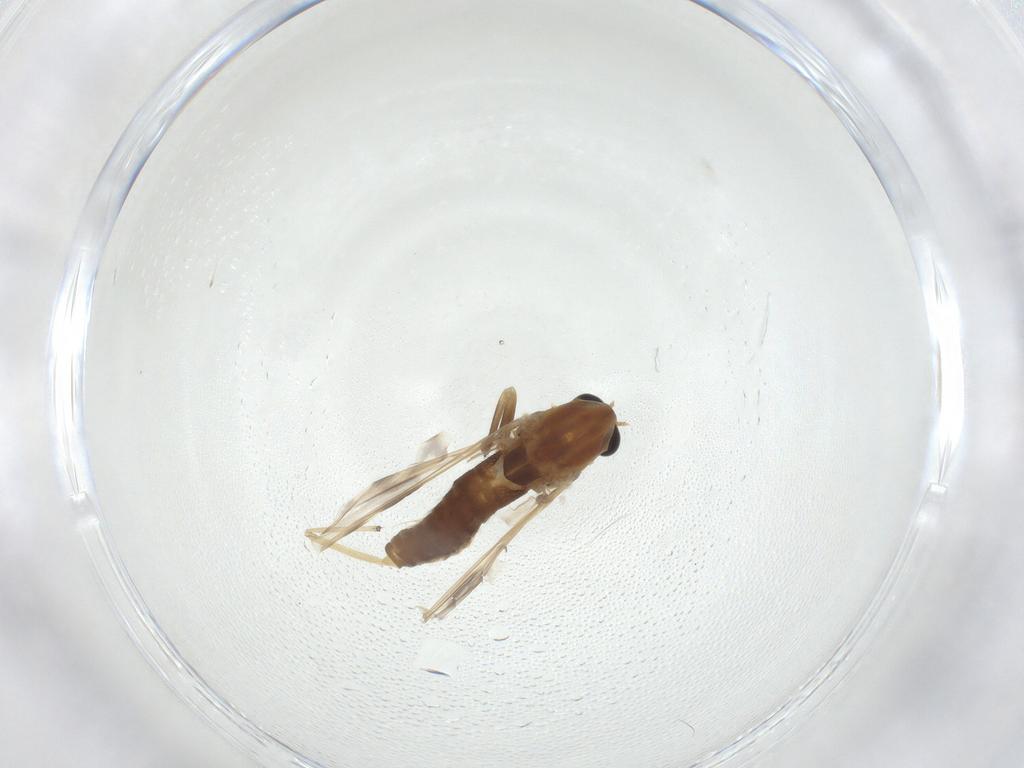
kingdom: Animalia
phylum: Arthropoda
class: Insecta
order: Diptera
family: Chironomidae
